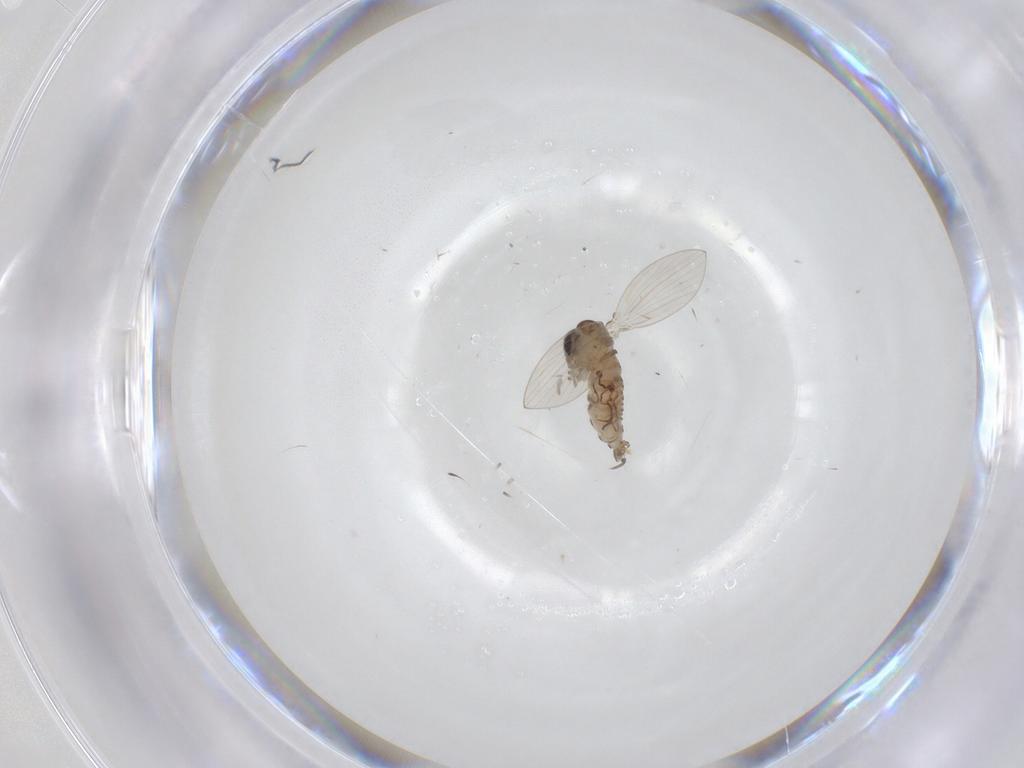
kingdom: Animalia
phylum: Arthropoda
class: Insecta
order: Diptera
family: Psychodidae
